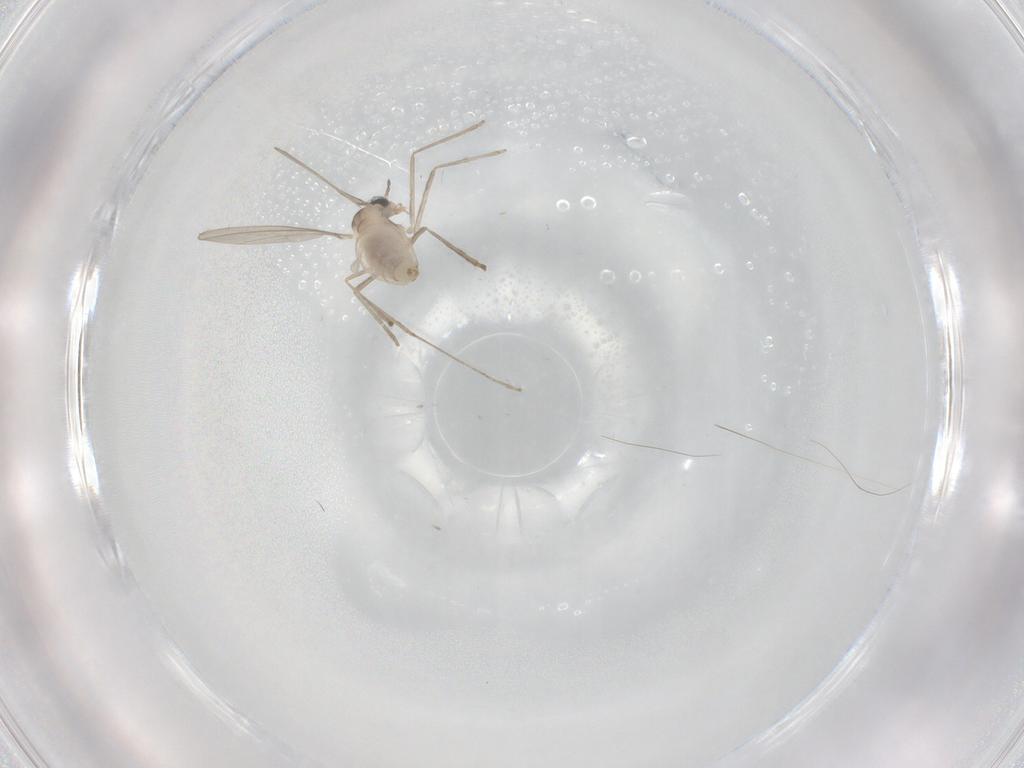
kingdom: Animalia
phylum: Arthropoda
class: Insecta
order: Diptera
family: Sciaridae
